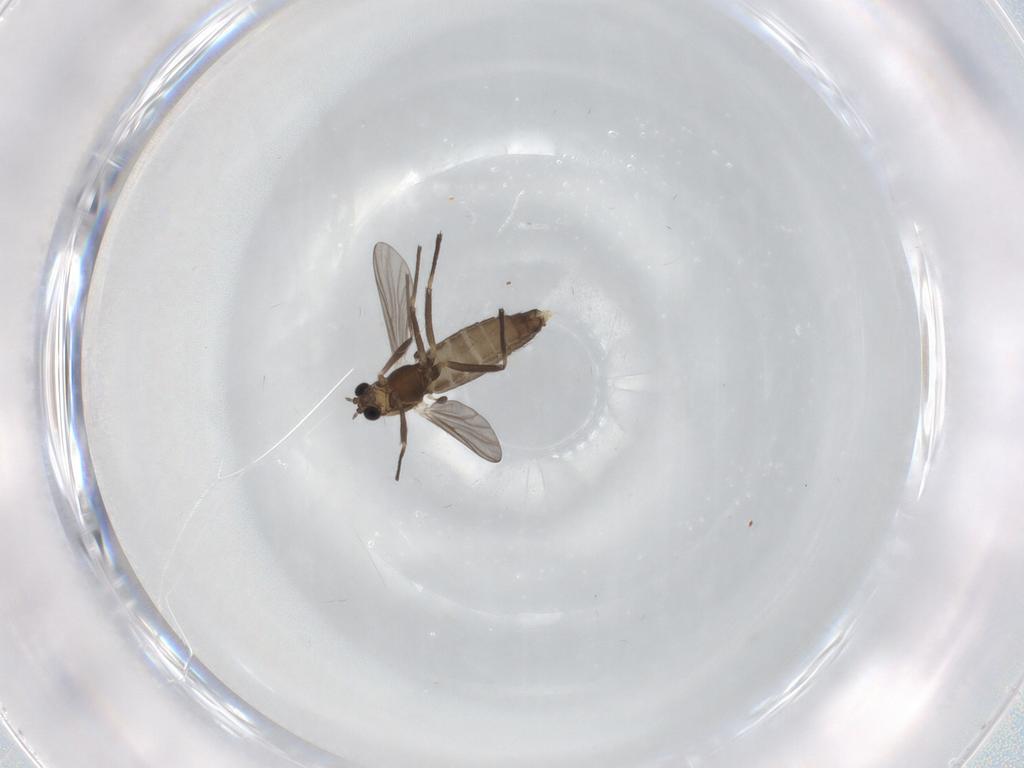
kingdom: Animalia
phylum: Arthropoda
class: Insecta
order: Diptera
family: Chironomidae
